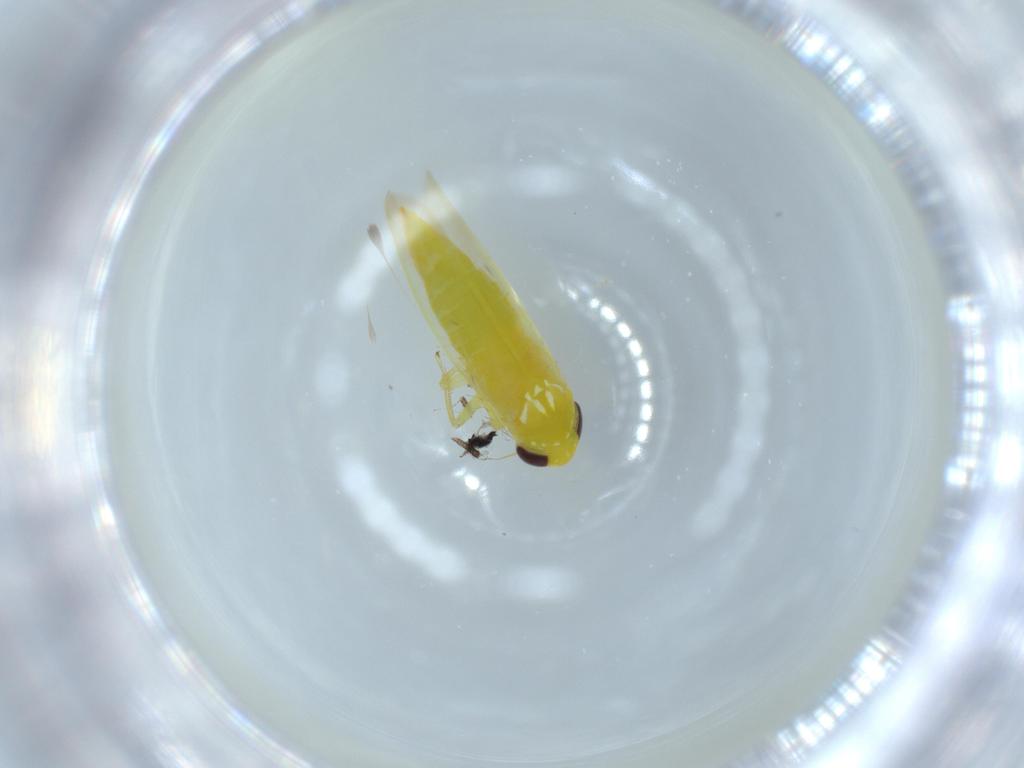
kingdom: Animalia
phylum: Arthropoda
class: Insecta
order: Hemiptera
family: Cicadellidae
